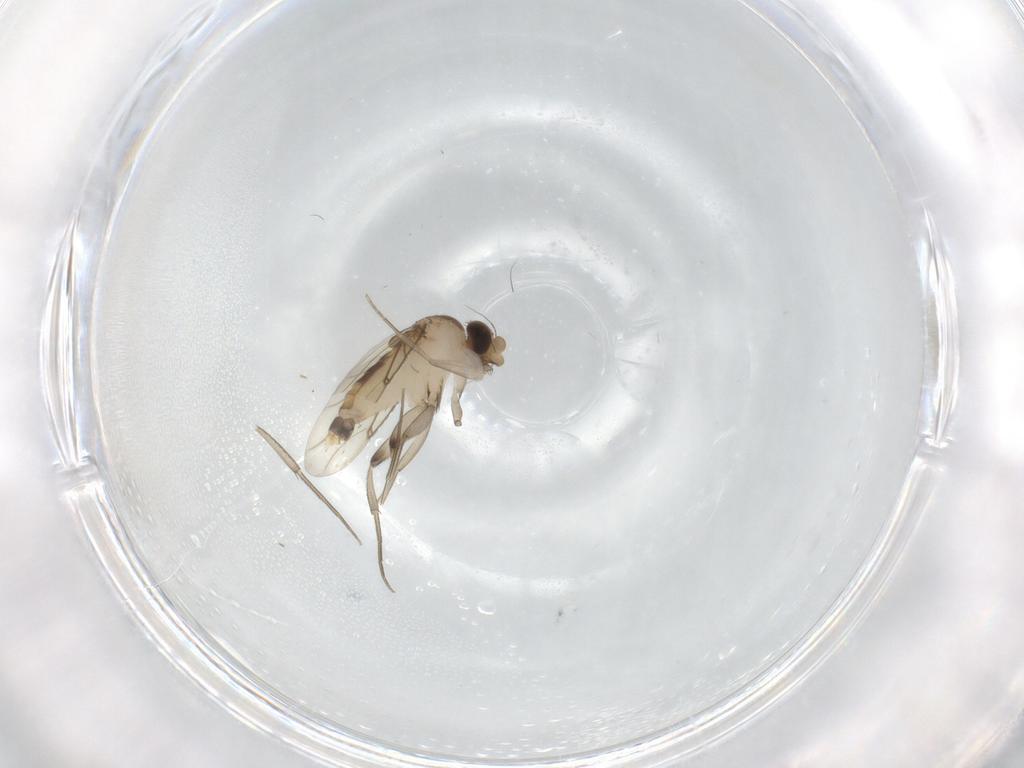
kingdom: Animalia
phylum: Arthropoda
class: Insecta
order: Diptera
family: Phoridae
